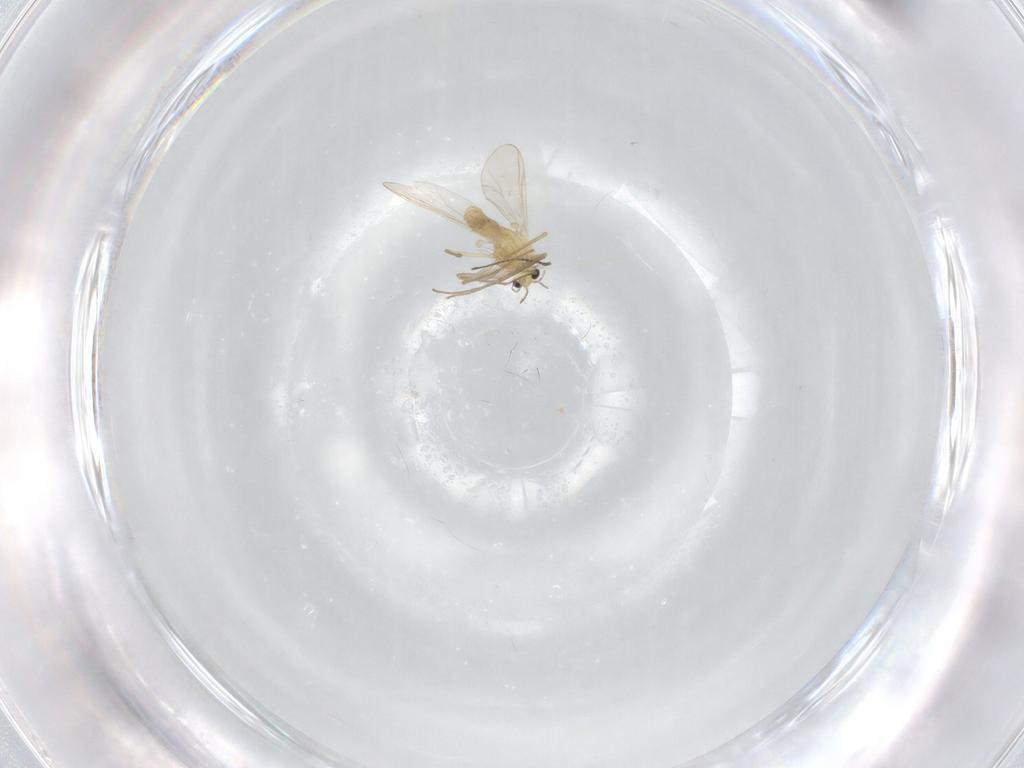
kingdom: Animalia
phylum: Arthropoda
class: Insecta
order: Diptera
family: Chironomidae
